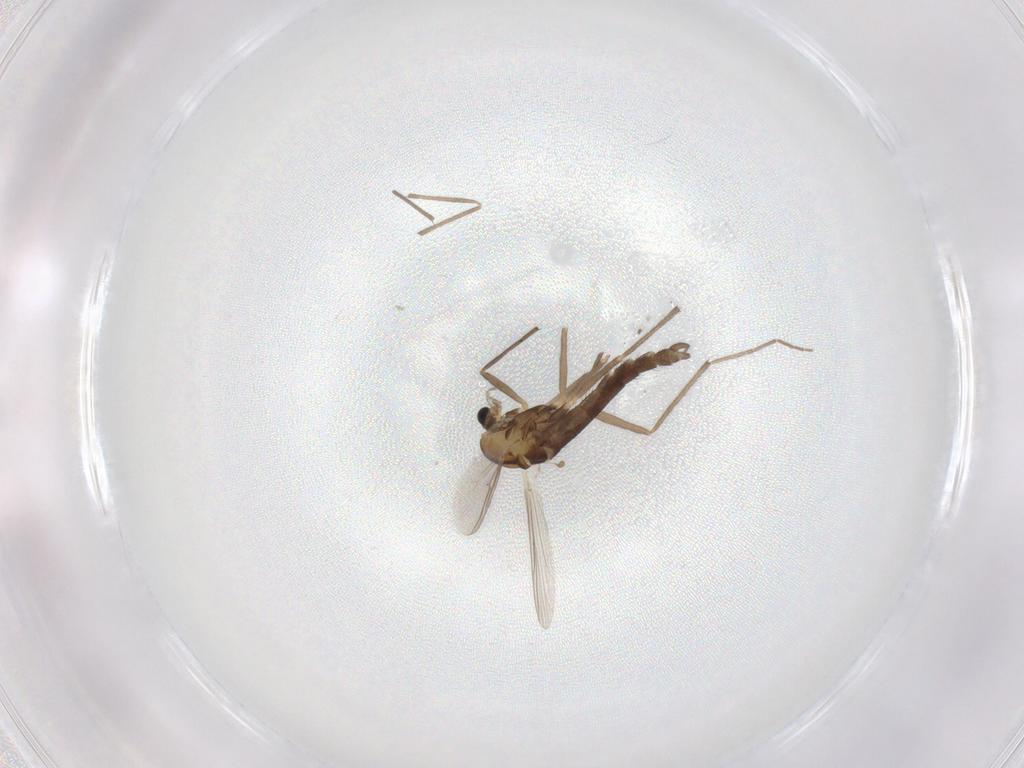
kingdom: Animalia
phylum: Arthropoda
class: Insecta
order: Diptera
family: Chironomidae
